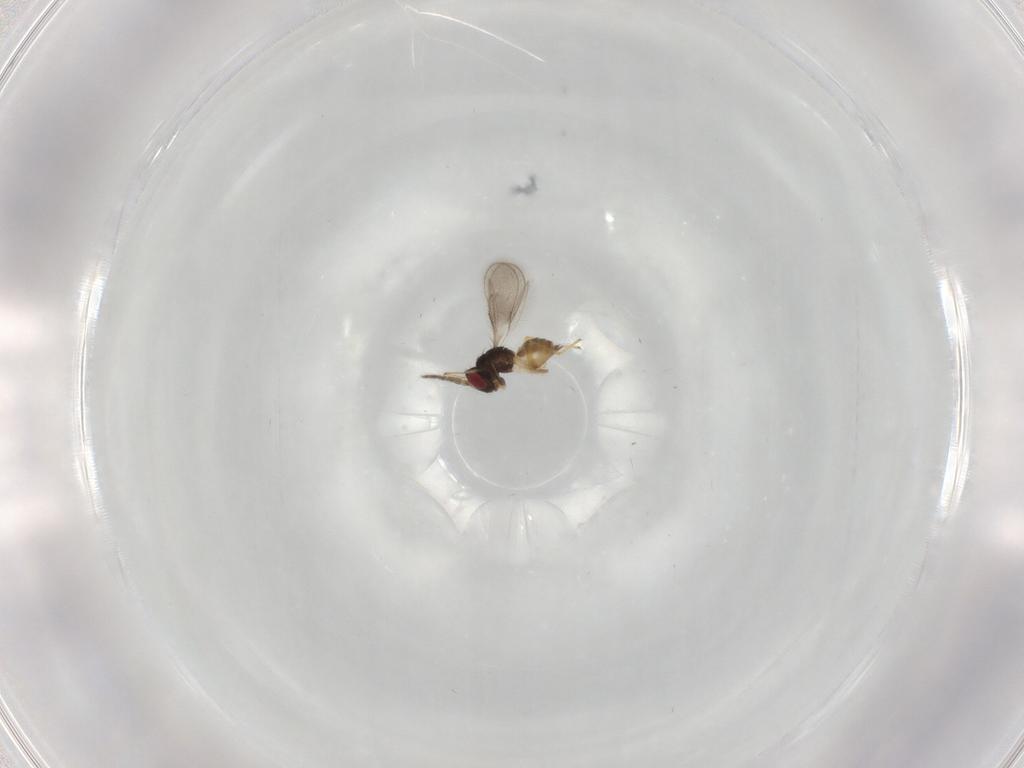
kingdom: Animalia
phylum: Arthropoda
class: Insecta
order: Hymenoptera
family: Eulophidae
